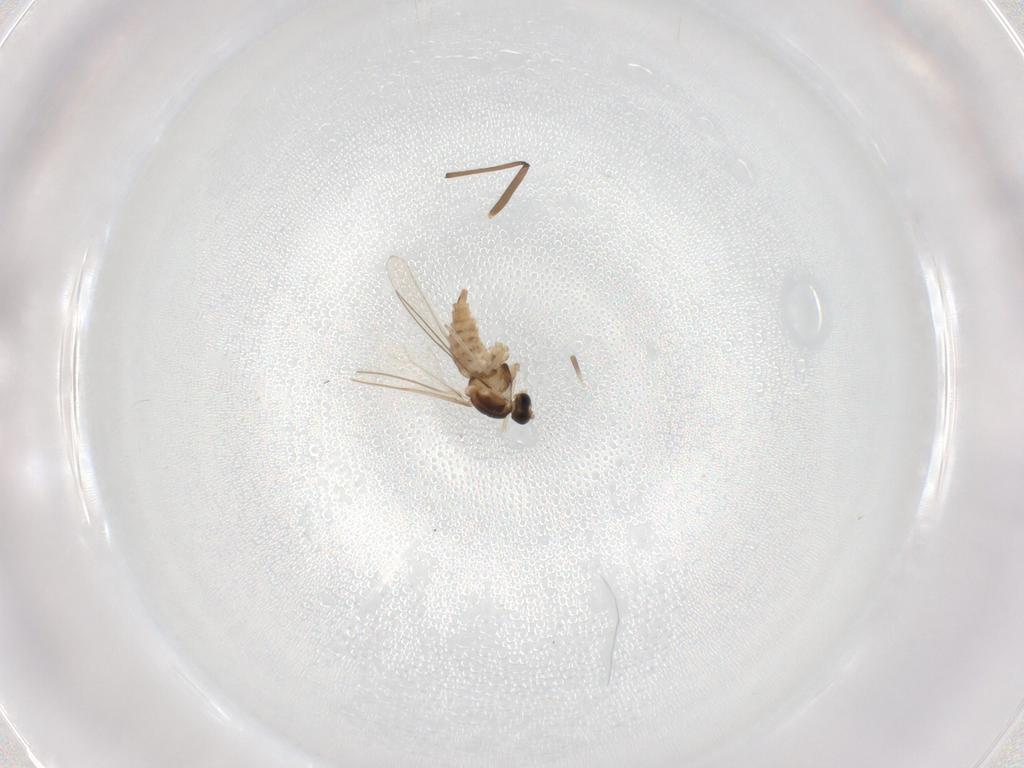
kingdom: Animalia
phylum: Arthropoda
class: Insecta
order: Diptera
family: Cecidomyiidae
